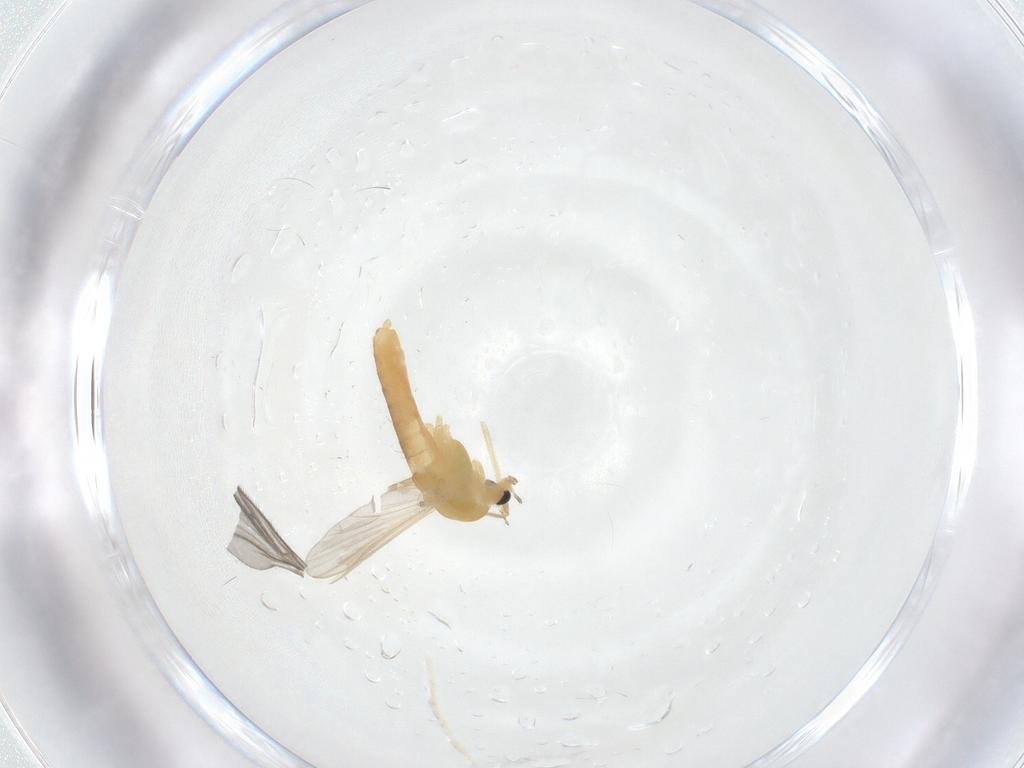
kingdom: Animalia
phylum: Arthropoda
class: Insecta
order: Diptera
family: Chironomidae
